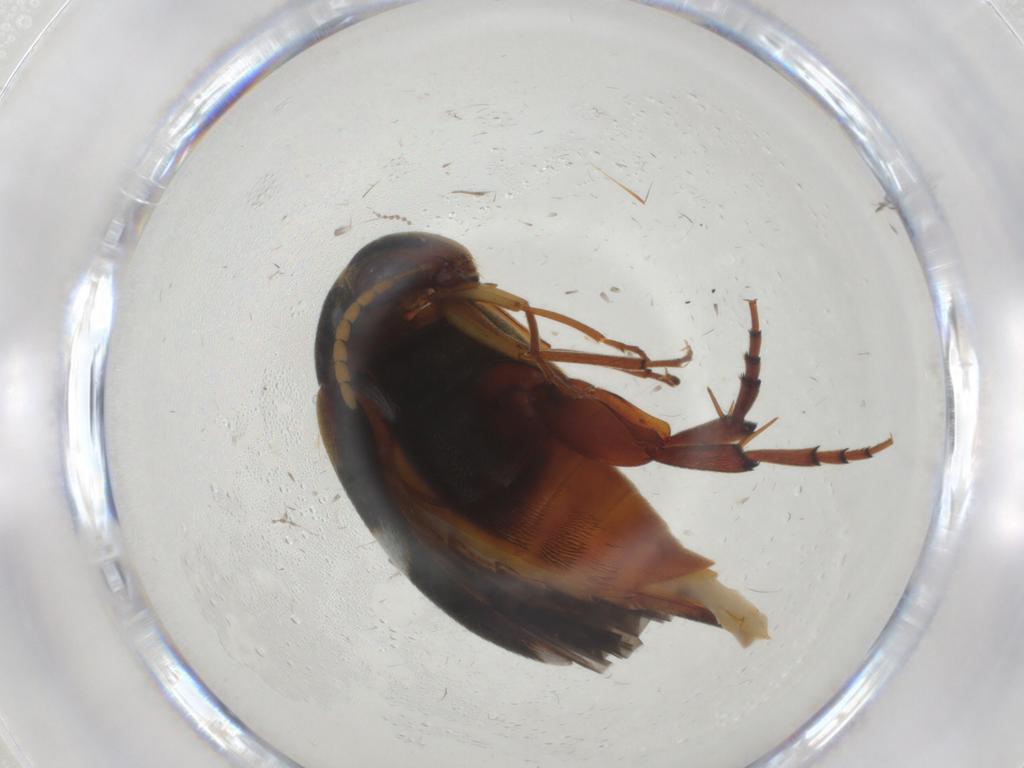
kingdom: Animalia
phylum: Arthropoda
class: Insecta
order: Coleoptera
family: Mordellidae
